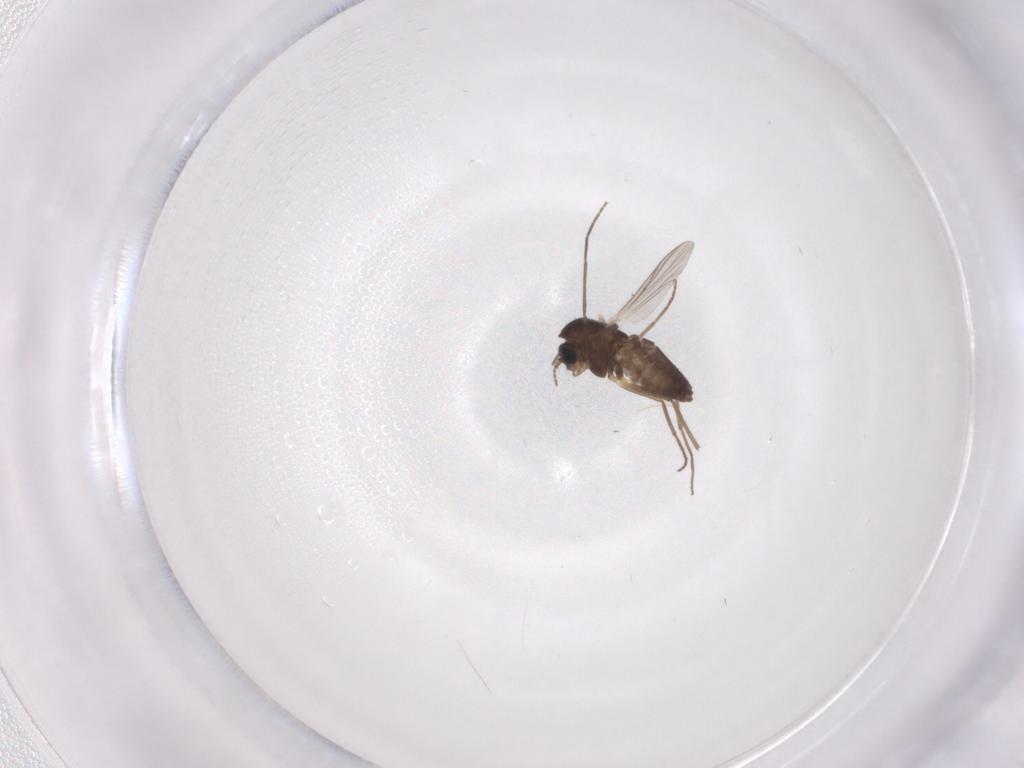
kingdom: Animalia
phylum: Arthropoda
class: Insecta
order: Diptera
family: Chironomidae
